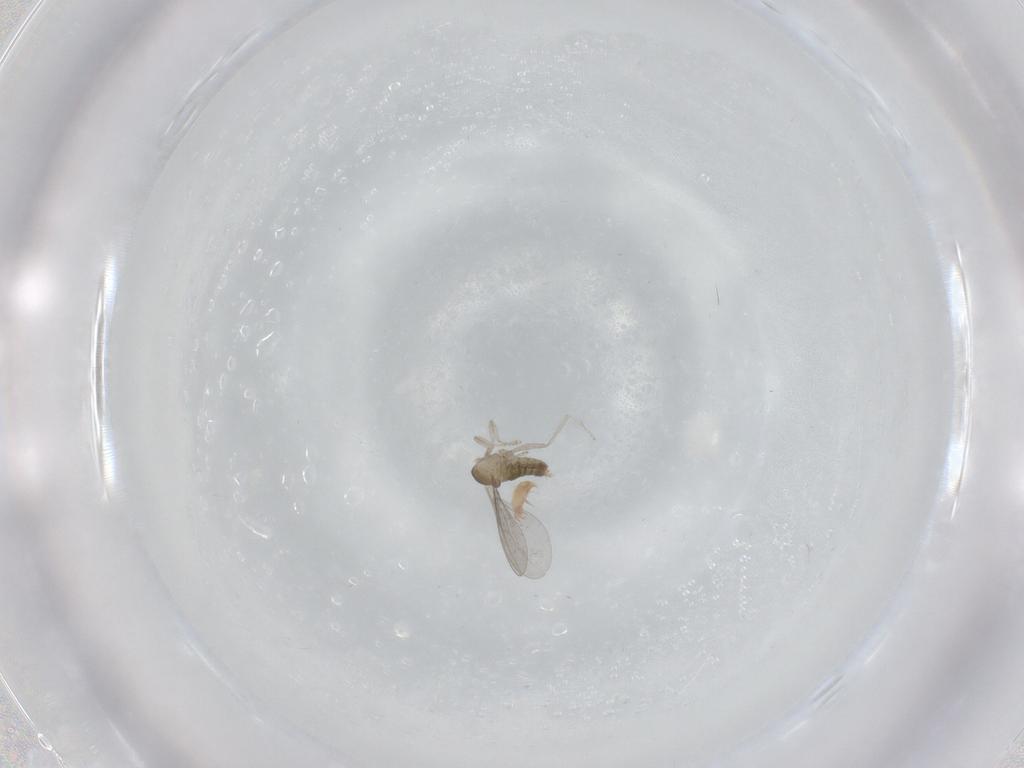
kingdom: Animalia
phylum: Arthropoda
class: Insecta
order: Diptera
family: Cecidomyiidae
